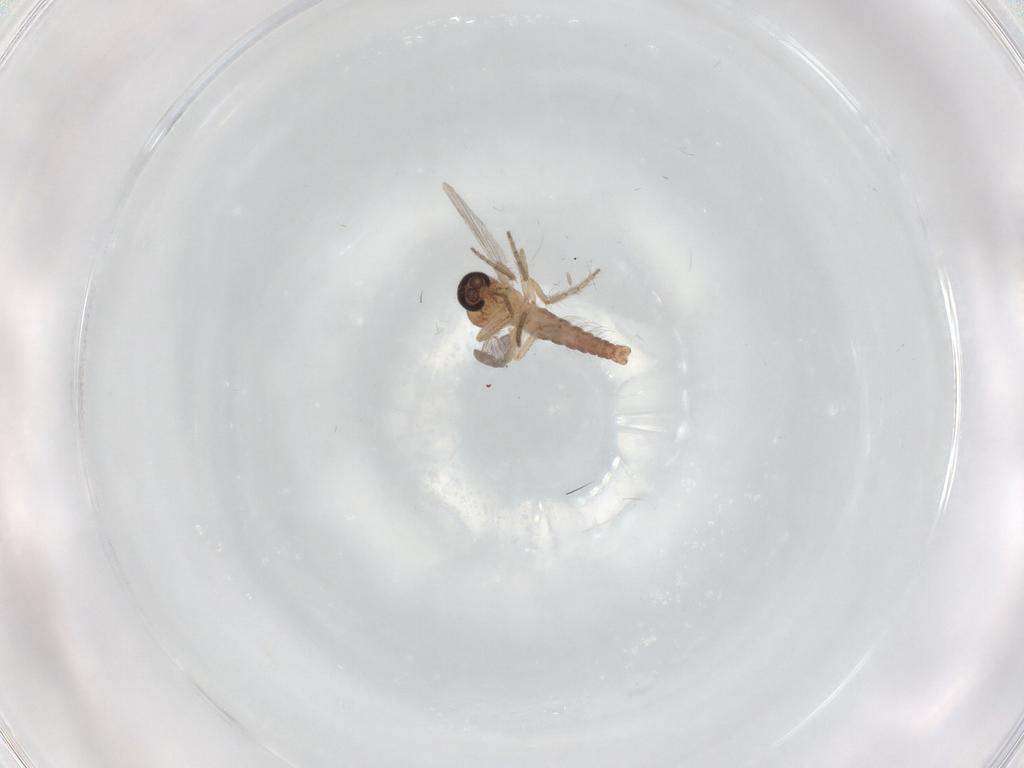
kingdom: Animalia
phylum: Arthropoda
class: Insecta
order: Diptera
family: Ceratopogonidae
